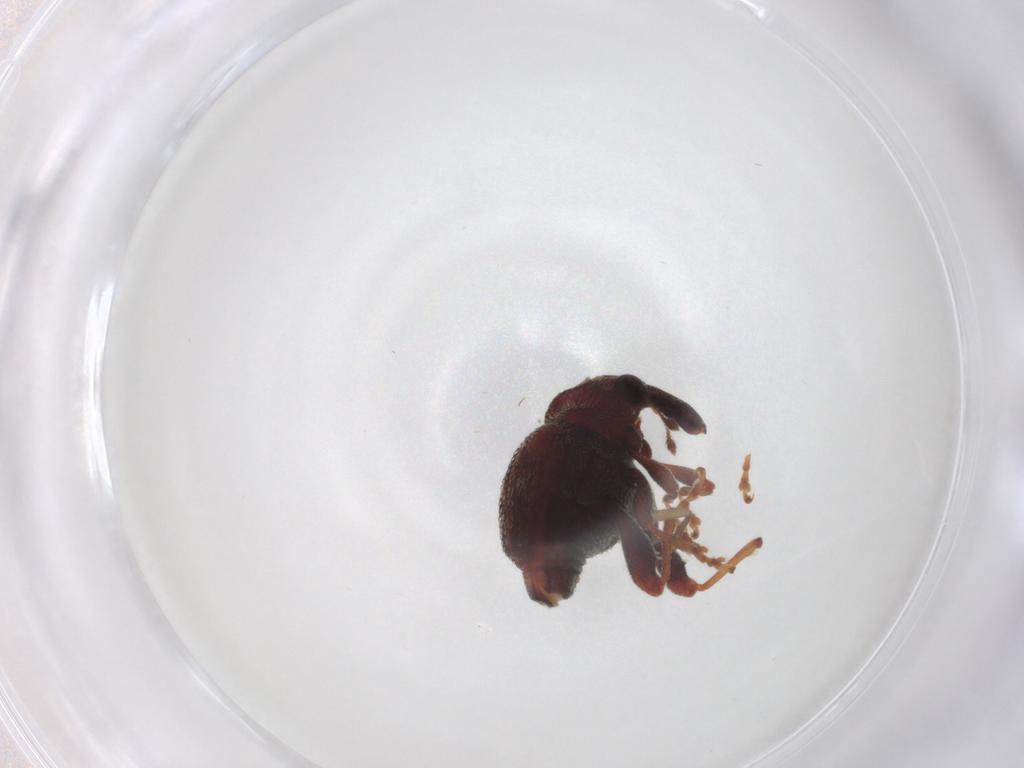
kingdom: Animalia
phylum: Arthropoda
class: Insecta
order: Coleoptera
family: Curculionidae
